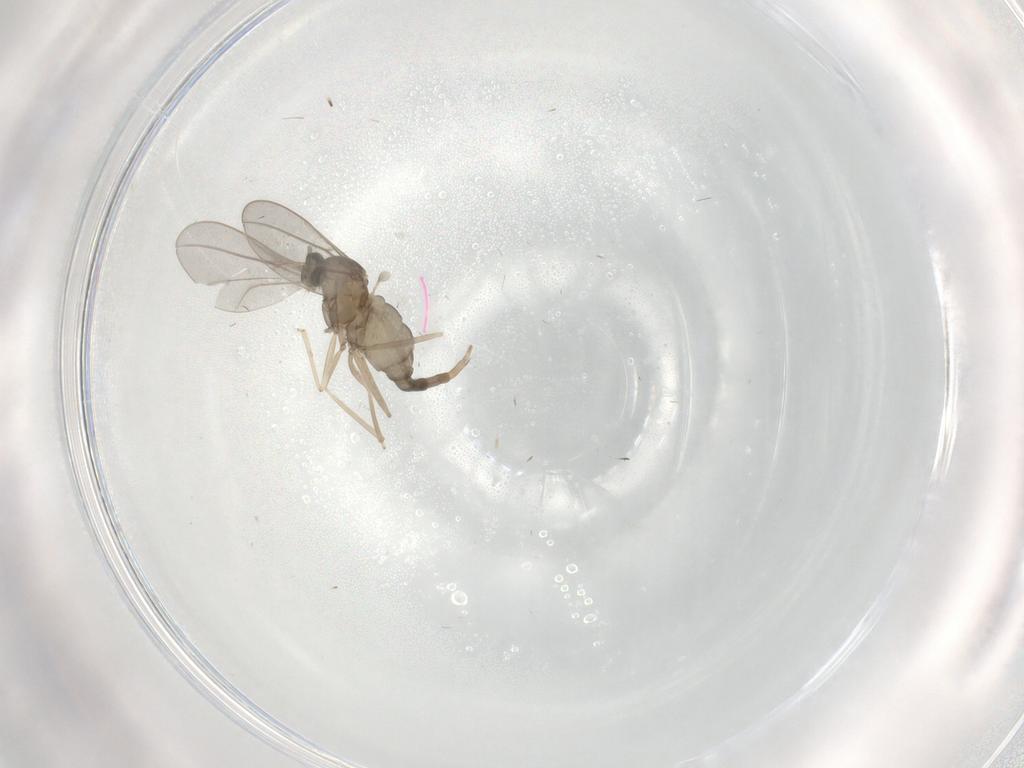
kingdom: Animalia
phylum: Arthropoda
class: Insecta
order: Diptera
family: Cecidomyiidae
